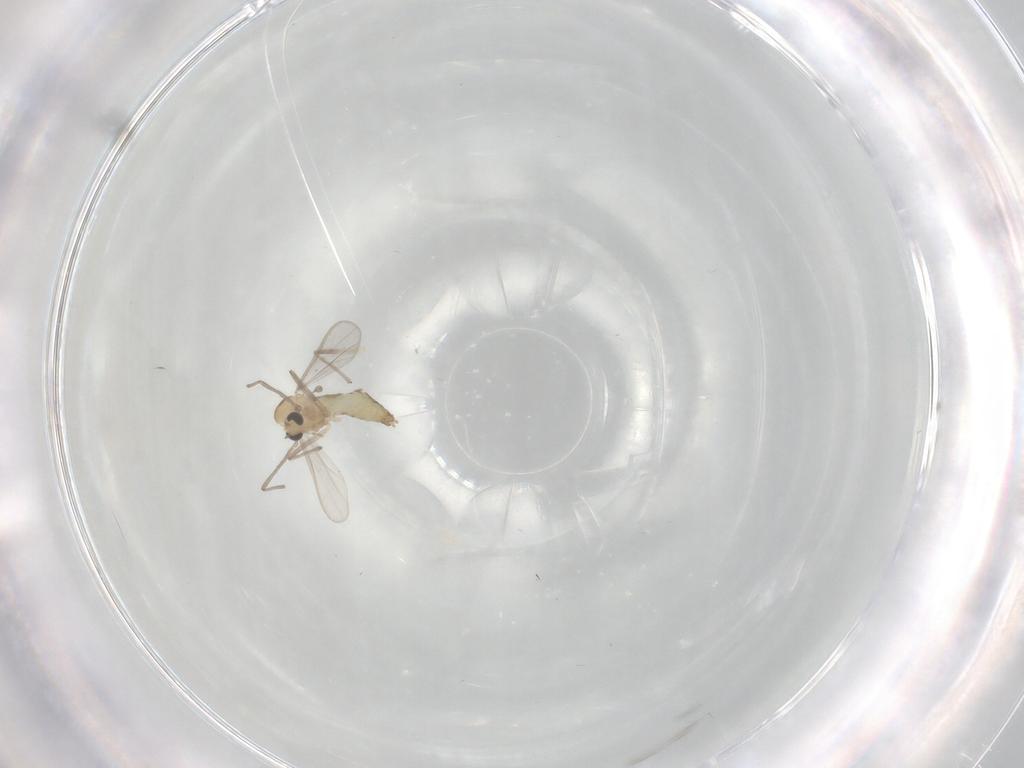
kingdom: Animalia
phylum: Arthropoda
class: Insecta
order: Diptera
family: Chironomidae
